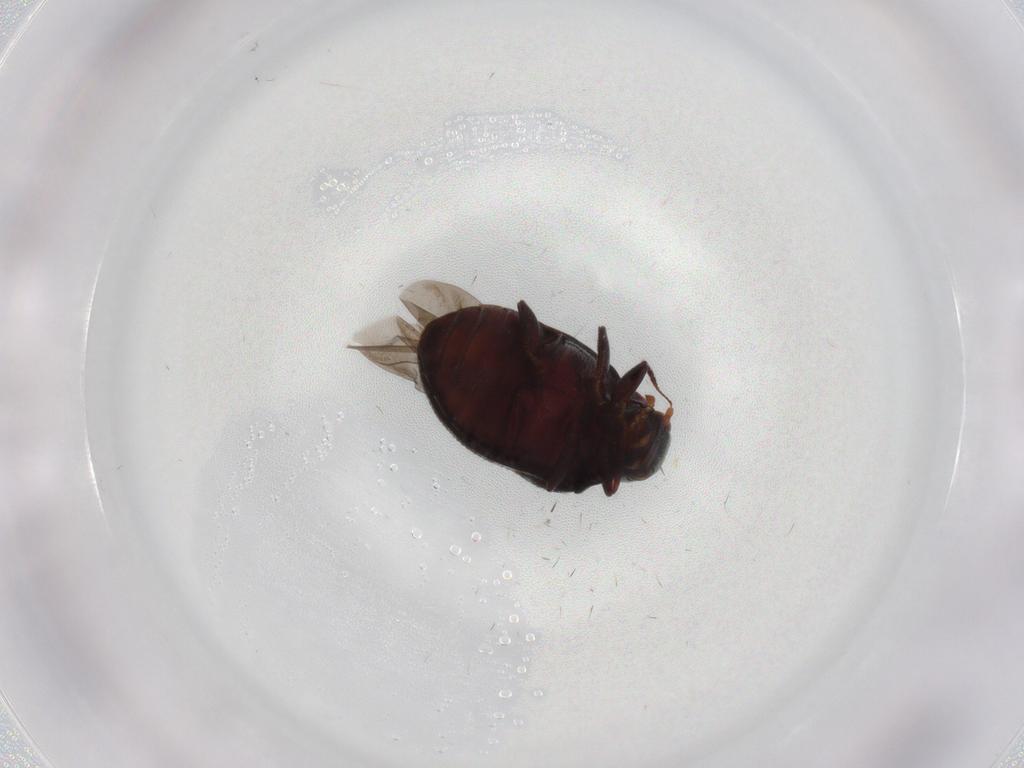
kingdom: Animalia
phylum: Arthropoda
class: Insecta
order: Coleoptera
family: Limnichidae
